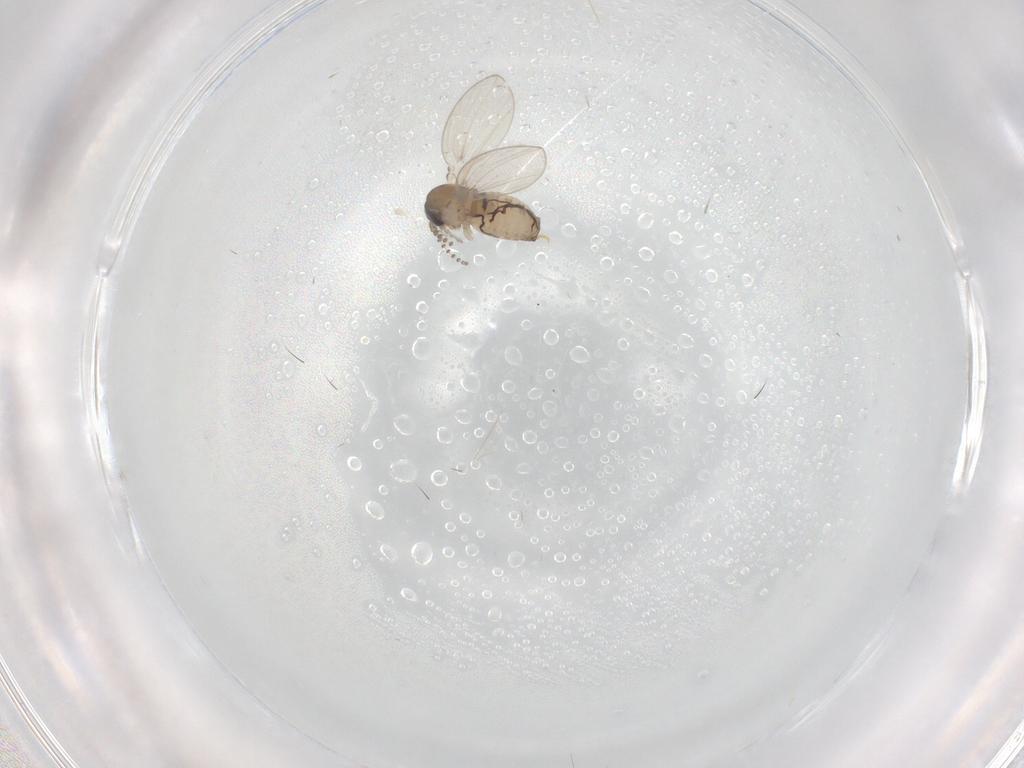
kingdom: Animalia
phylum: Arthropoda
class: Insecta
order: Diptera
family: Psychodidae
